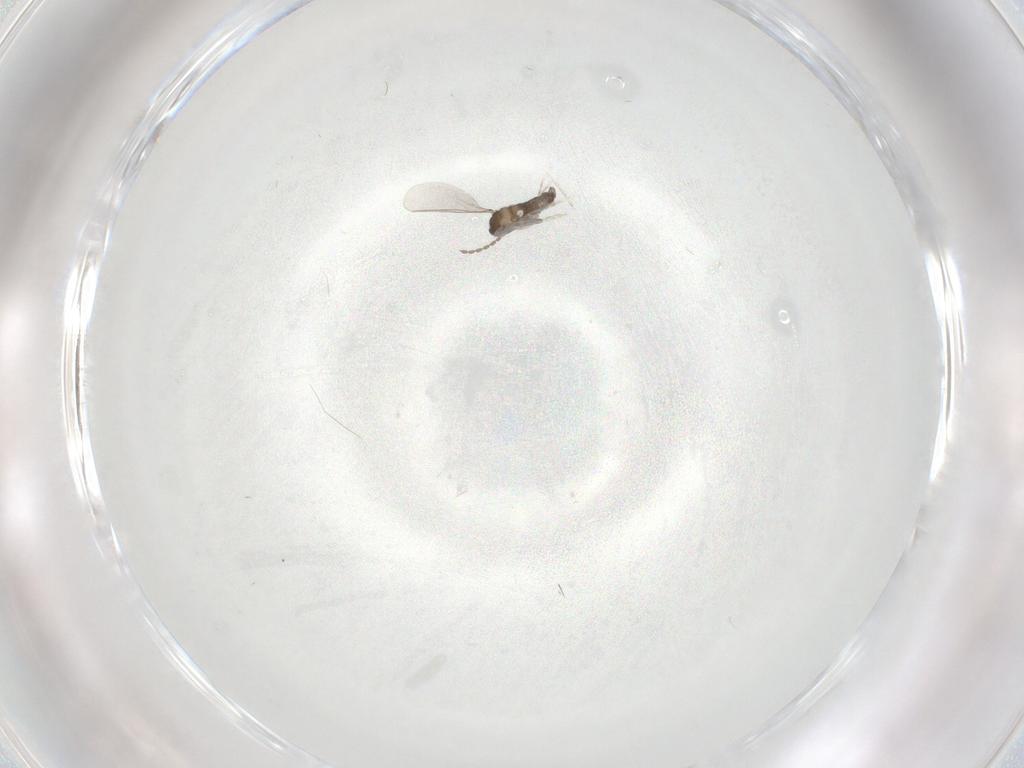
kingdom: Animalia
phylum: Arthropoda
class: Insecta
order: Diptera
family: Cecidomyiidae
